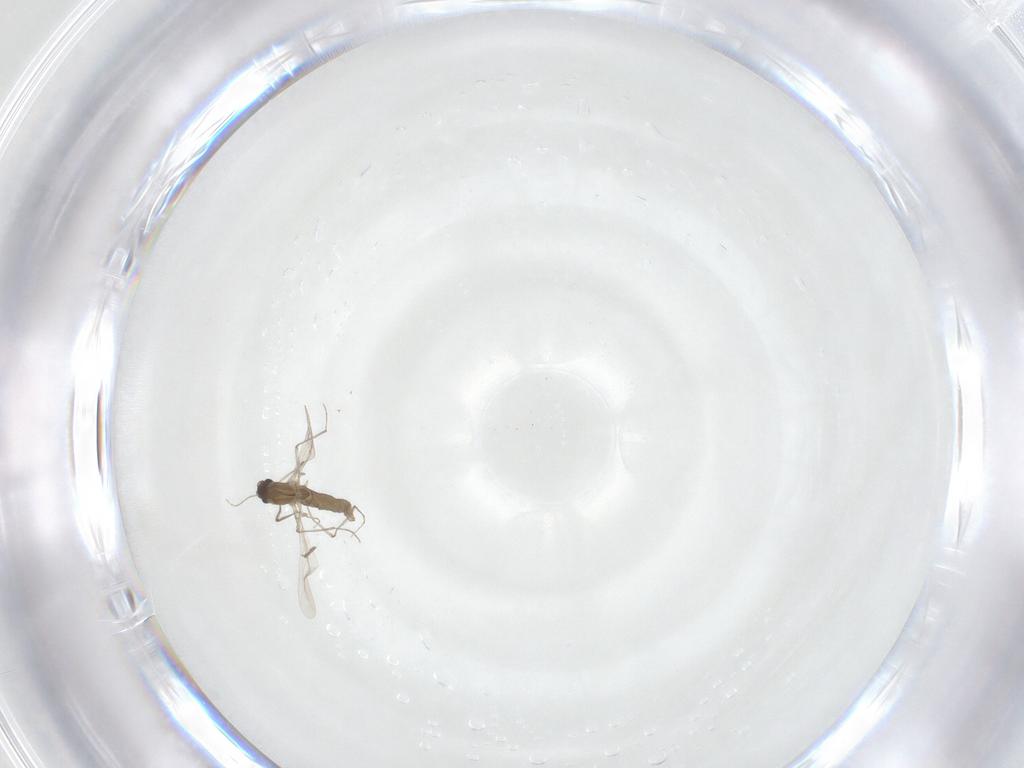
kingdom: Animalia
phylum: Arthropoda
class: Insecta
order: Diptera
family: Chironomidae
